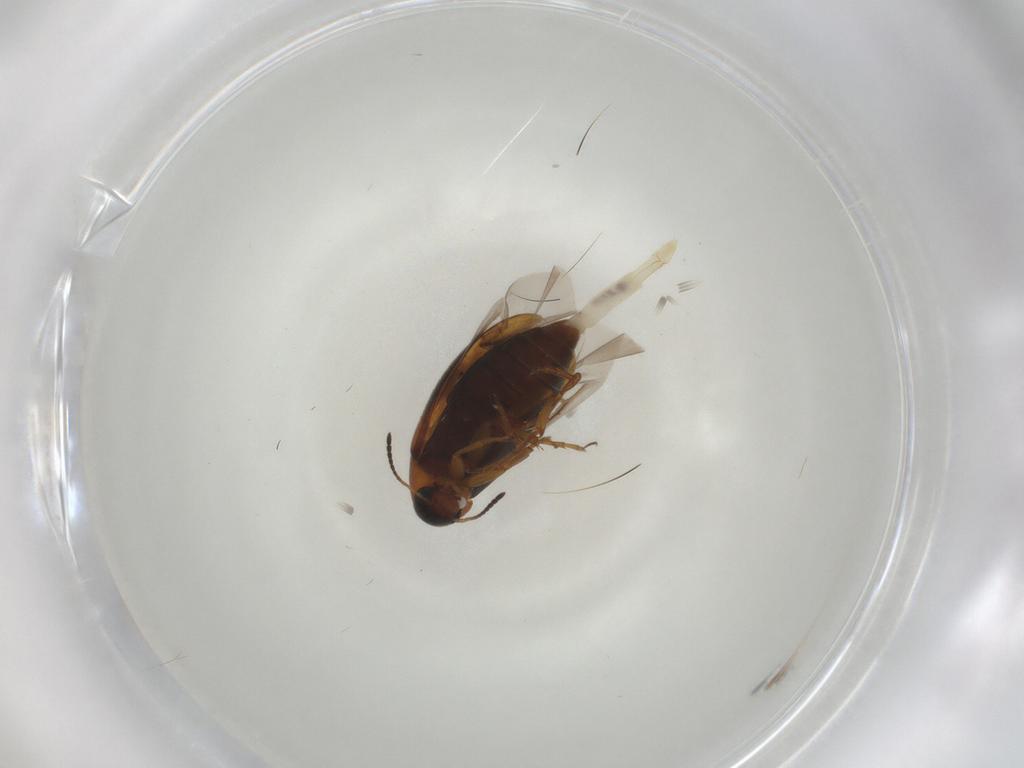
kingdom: Animalia
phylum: Arthropoda
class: Insecta
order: Coleoptera
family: Scraptiidae
